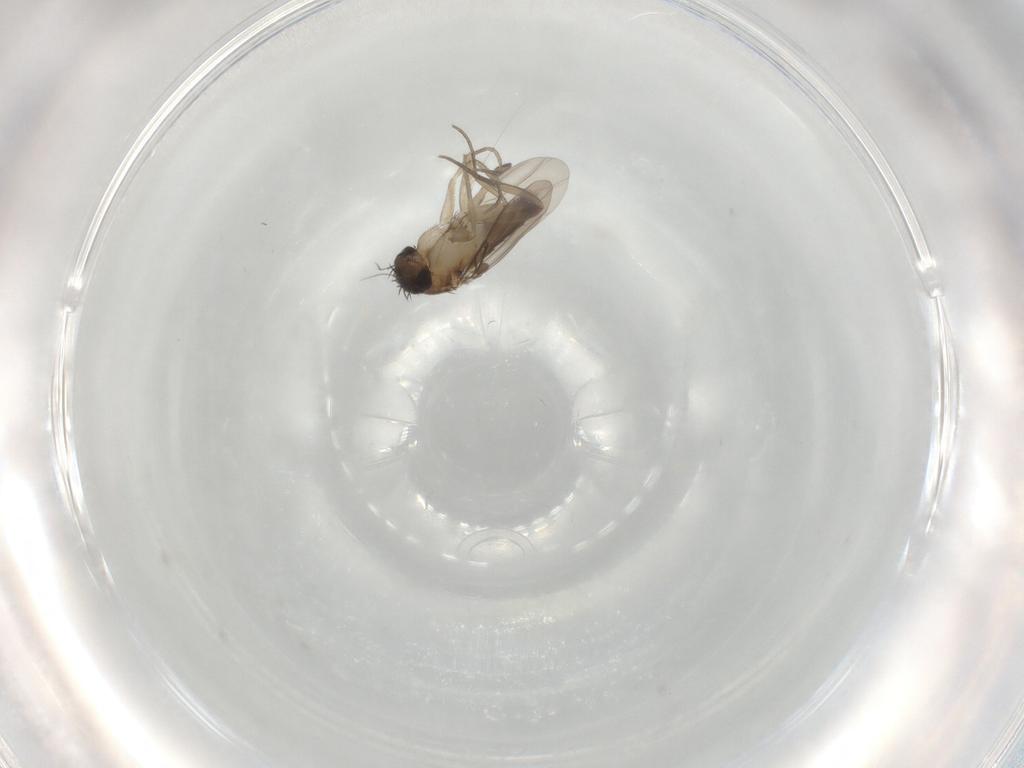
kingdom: Animalia
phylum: Arthropoda
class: Insecta
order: Diptera
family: Phoridae
